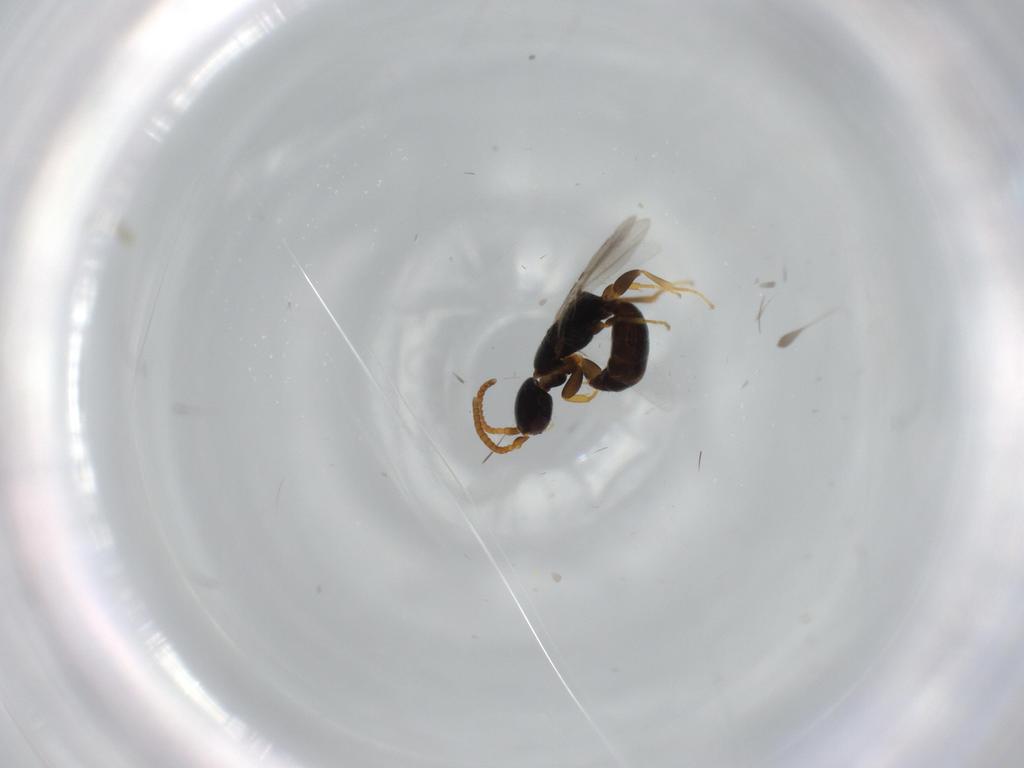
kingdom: Animalia
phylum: Arthropoda
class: Insecta
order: Hymenoptera
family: Bethylidae
